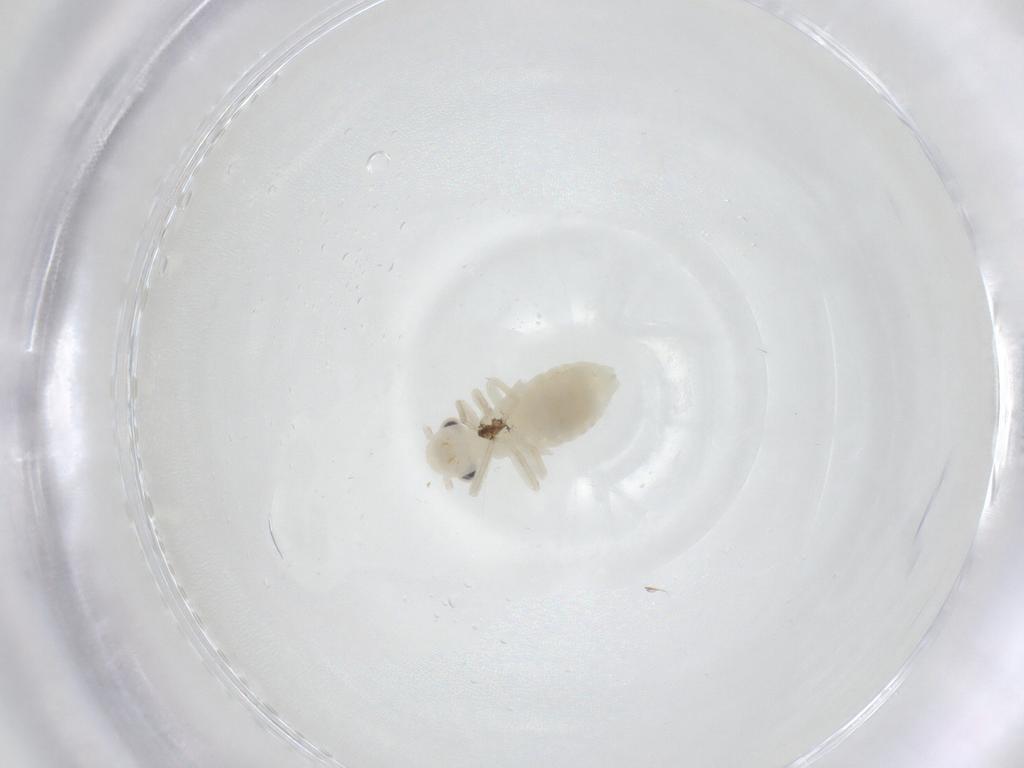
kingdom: Animalia
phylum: Arthropoda
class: Insecta
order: Psocodea
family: Caeciliusidae
